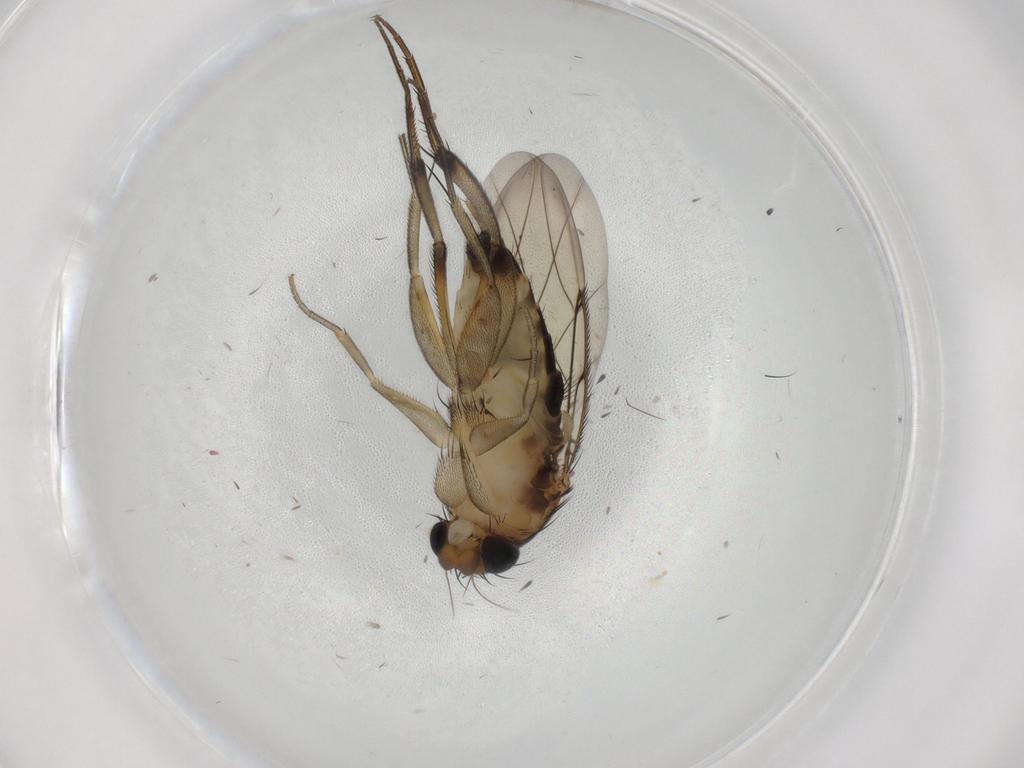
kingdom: Animalia
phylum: Arthropoda
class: Insecta
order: Diptera
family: Phoridae
